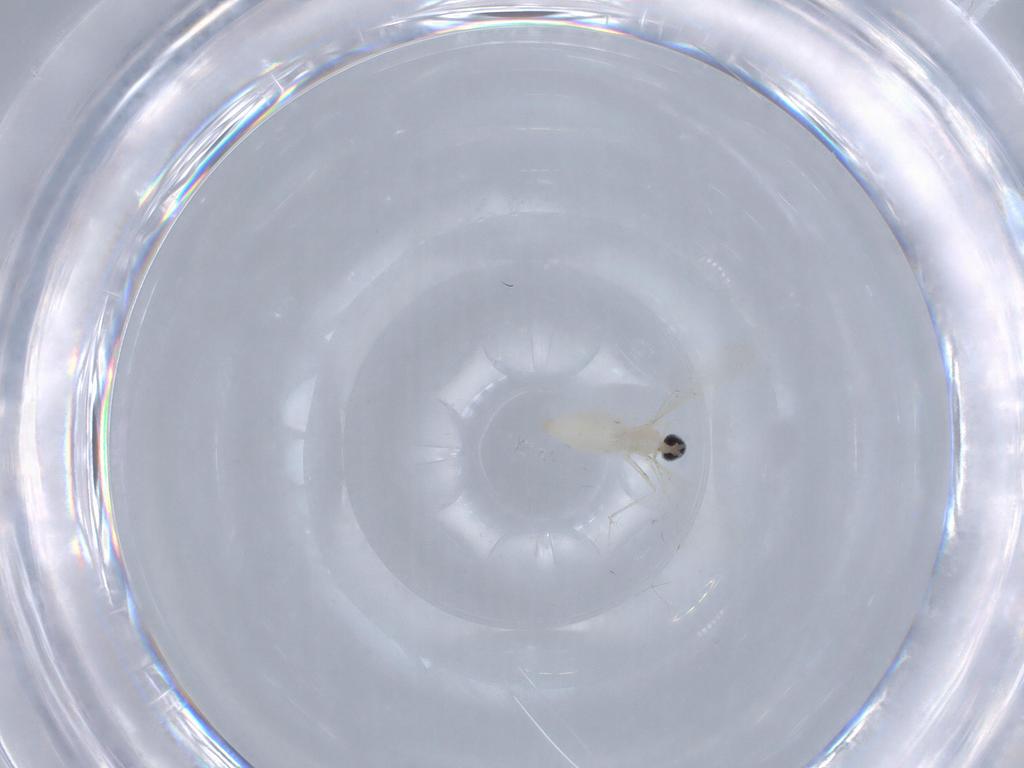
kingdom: Animalia
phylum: Arthropoda
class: Insecta
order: Diptera
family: Cecidomyiidae
